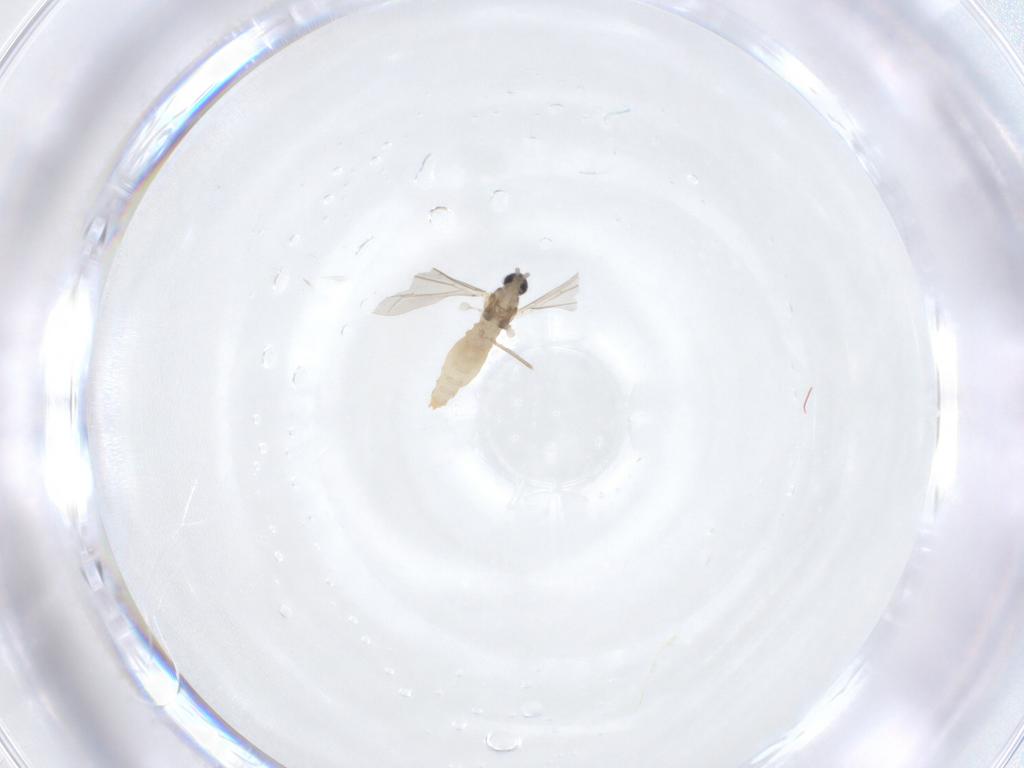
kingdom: Animalia
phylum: Arthropoda
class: Insecta
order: Diptera
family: Cecidomyiidae
